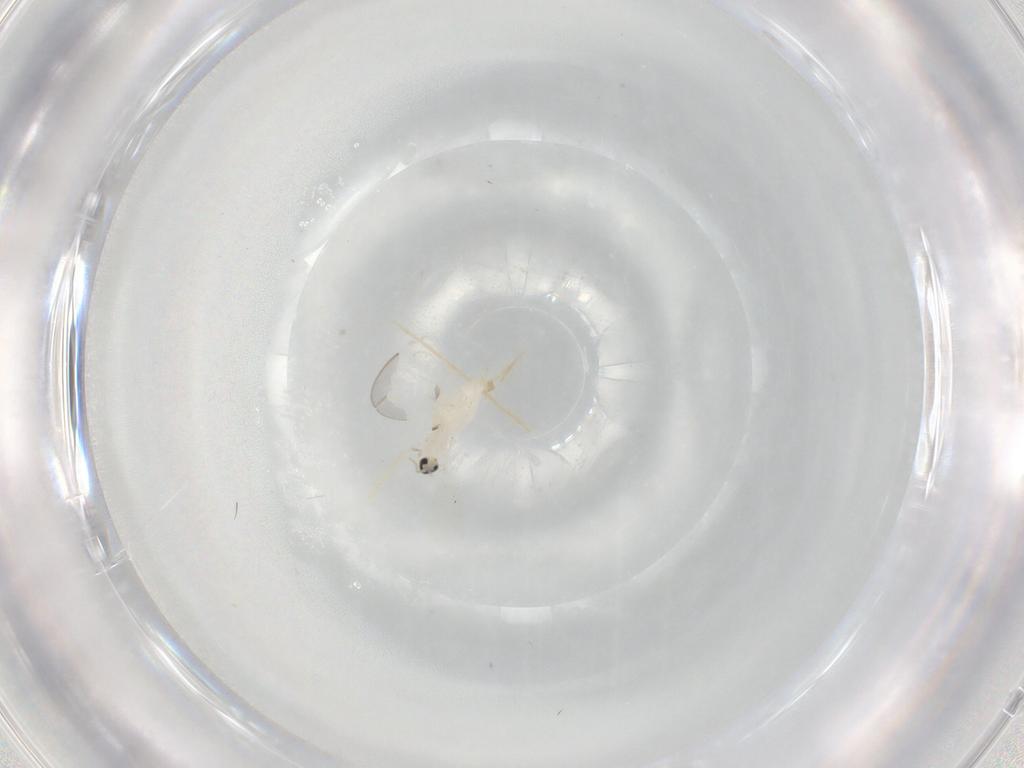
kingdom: Animalia
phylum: Arthropoda
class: Insecta
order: Diptera
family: Cecidomyiidae
